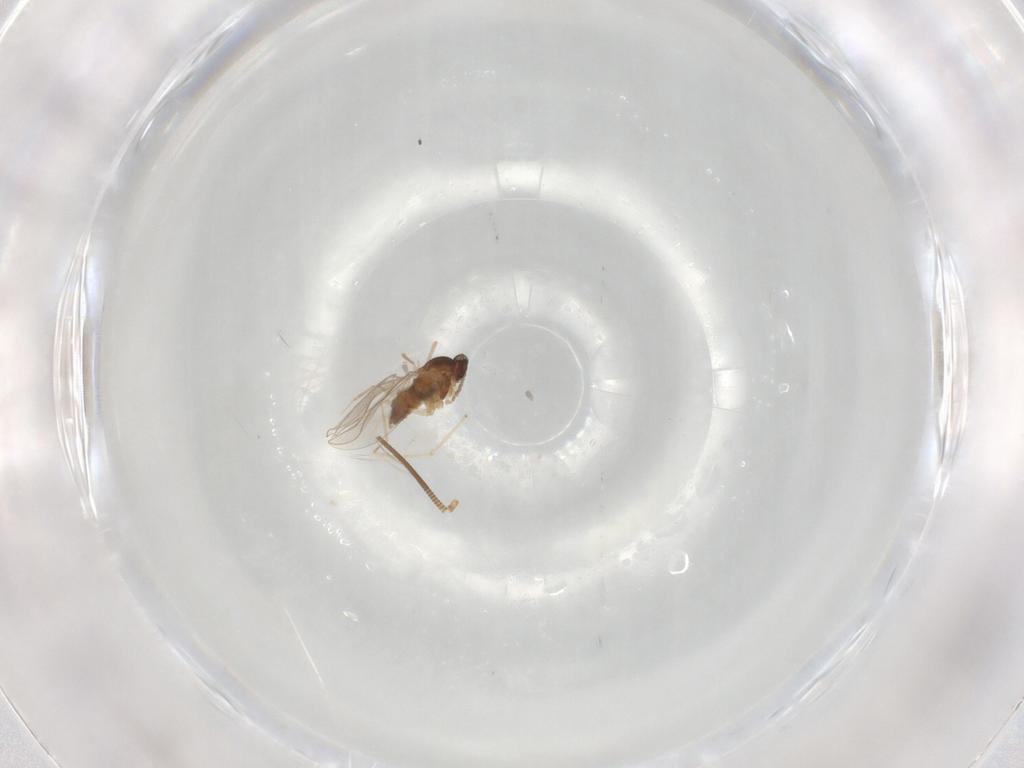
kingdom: Animalia
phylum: Arthropoda
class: Insecta
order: Diptera
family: Cecidomyiidae
